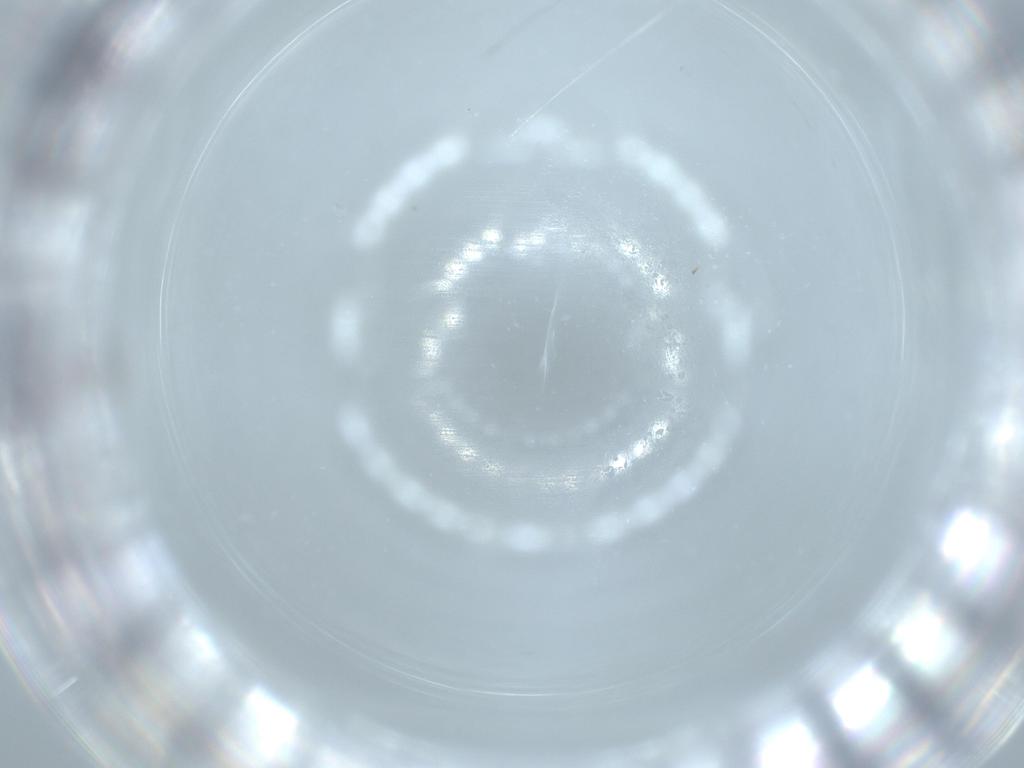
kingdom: Animalia
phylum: Arthropoda
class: Insecta
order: Diptera
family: Cecidomyiidae
